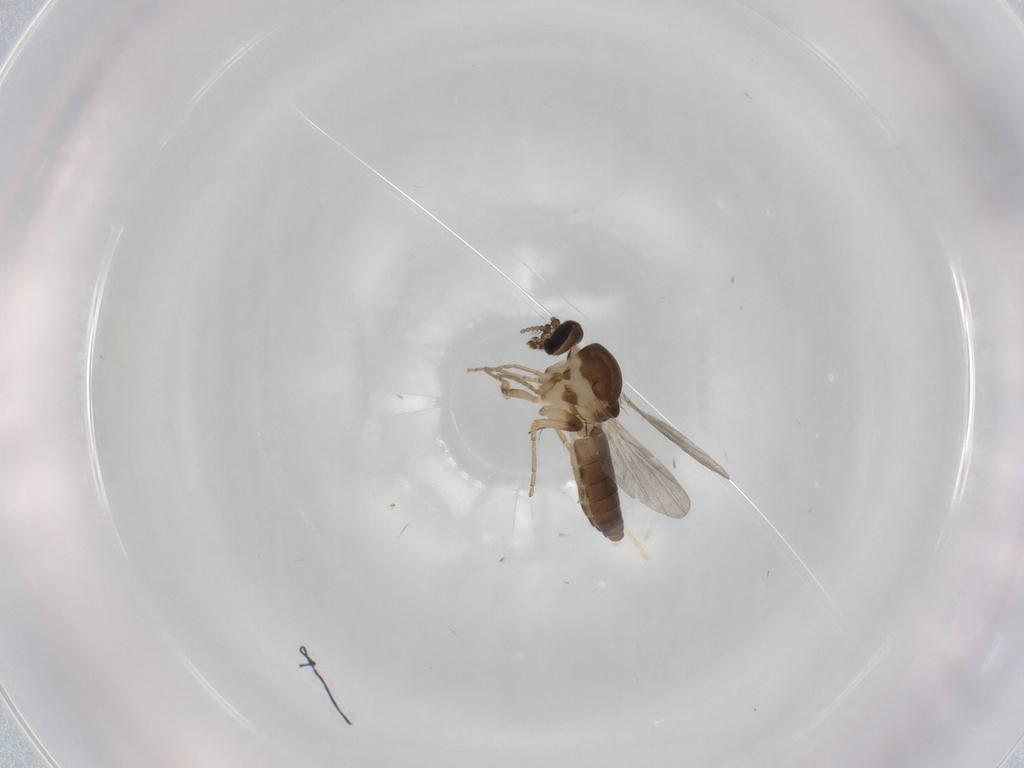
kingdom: Animalia
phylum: Arthropoda
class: Insecta
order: Diptera
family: Ceratopogonidae
